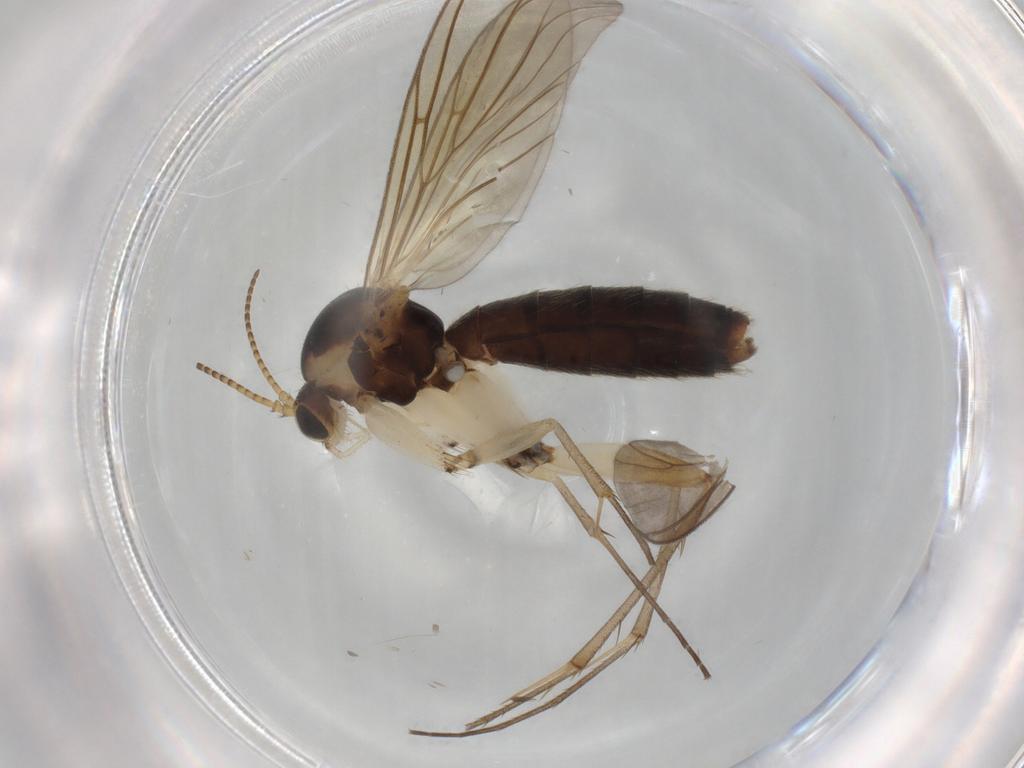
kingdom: Animalia
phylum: Arthropoda
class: Insecta
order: Diptera
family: Mycetophilidae
